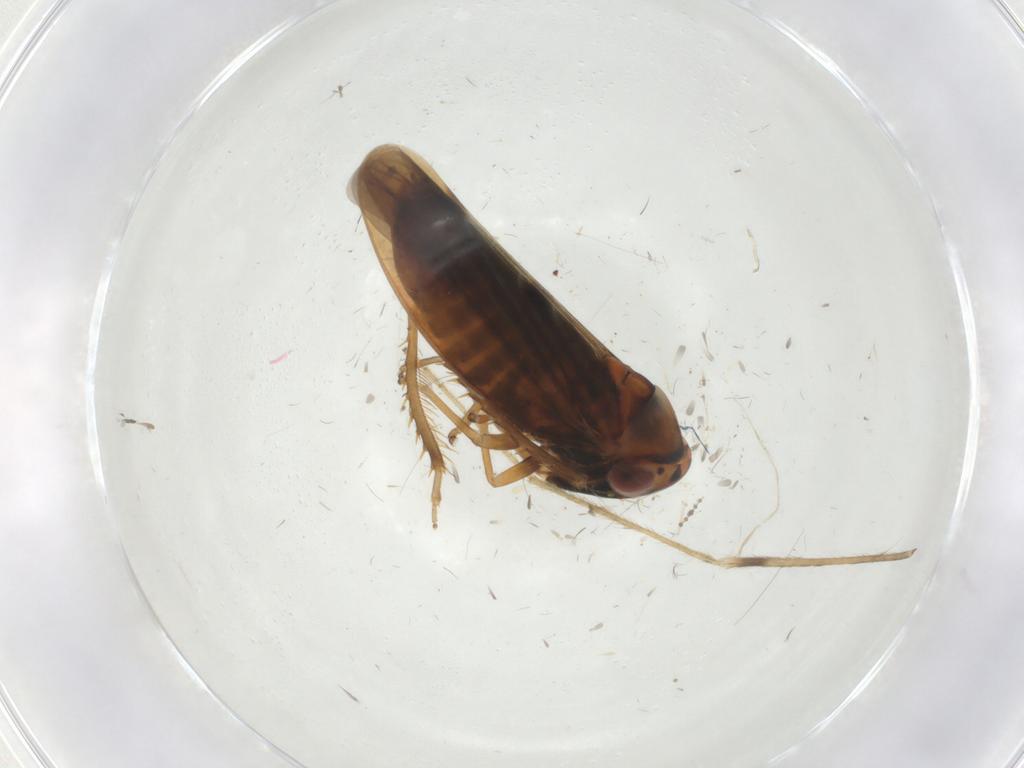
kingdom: Animalia
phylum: Arthropoda
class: Insecta
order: Hemiptera
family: Cicadellidae
